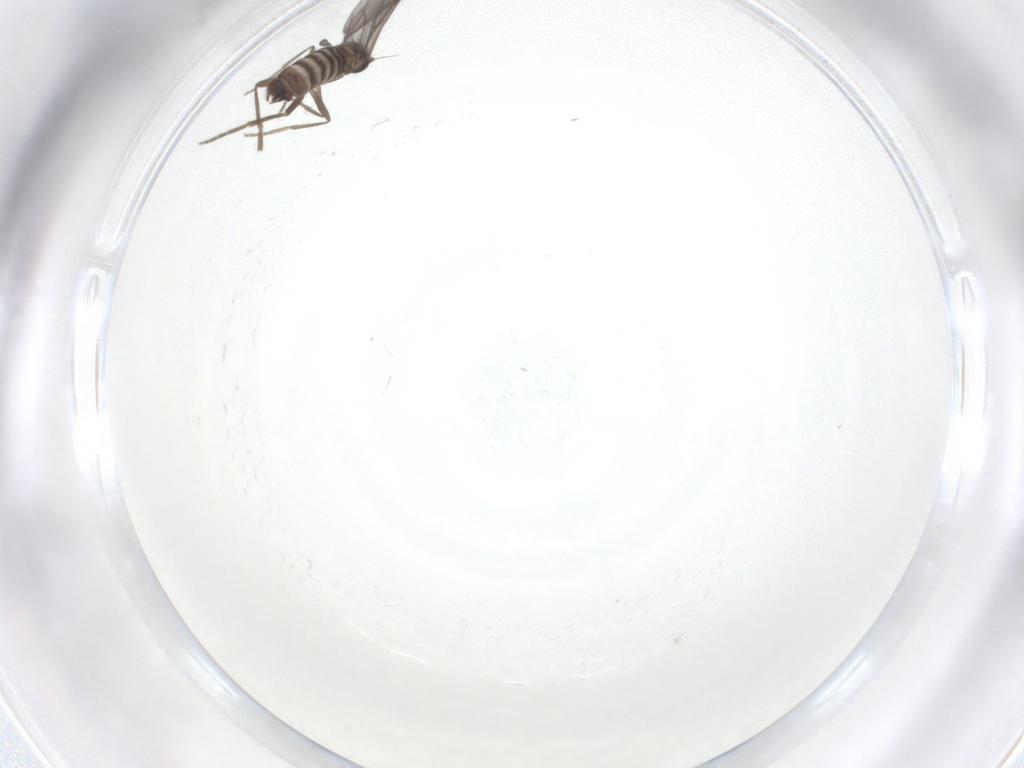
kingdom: Animalia
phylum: Arthropoda
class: Insecta
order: Diptera
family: Phoridae
